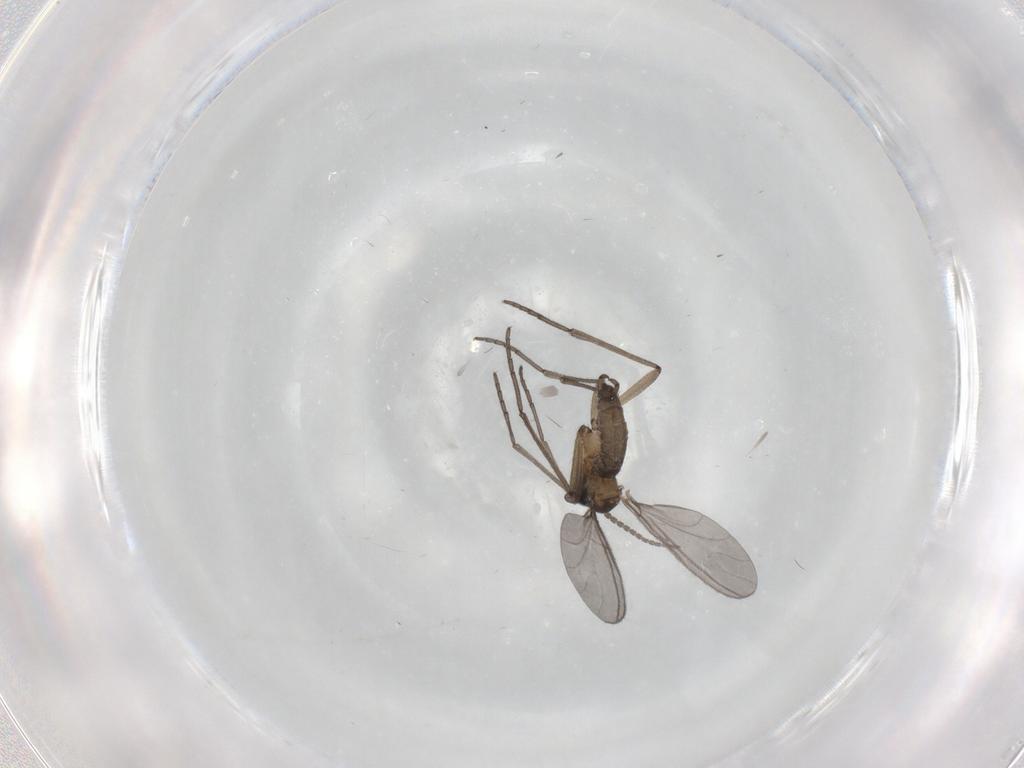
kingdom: Animalia
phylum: Arthropoda
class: Insecta
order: Diptera
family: Sciaridae
